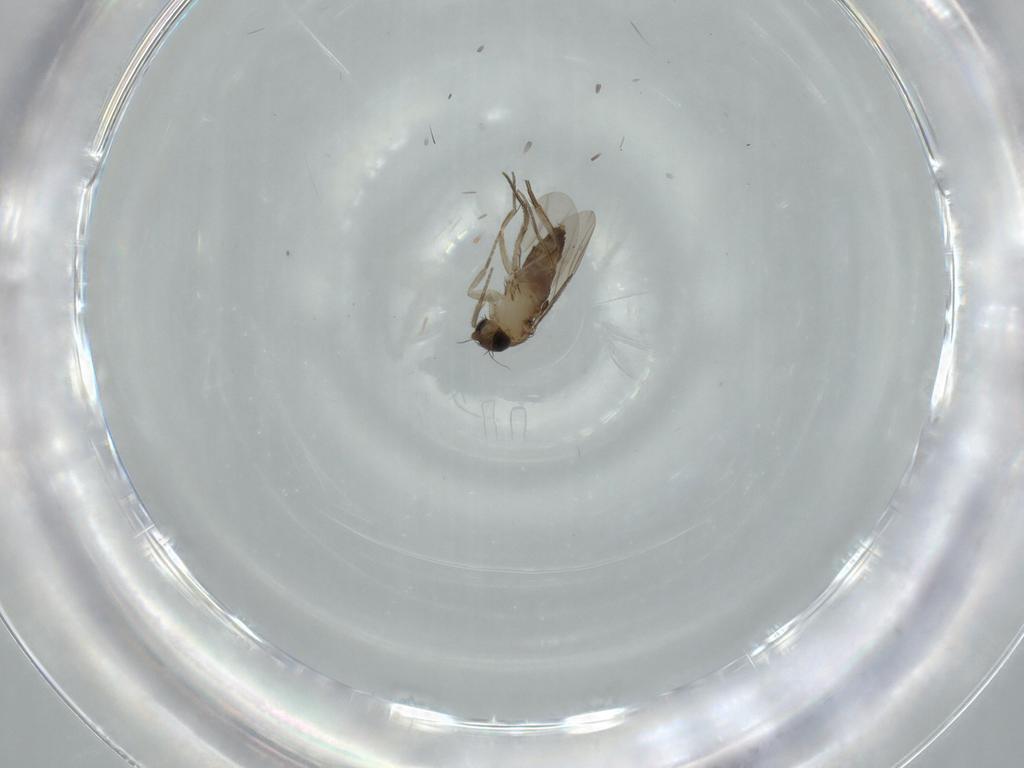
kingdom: Animalia
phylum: Arthropoda
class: Insecta
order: Diptera
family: Phoridae
